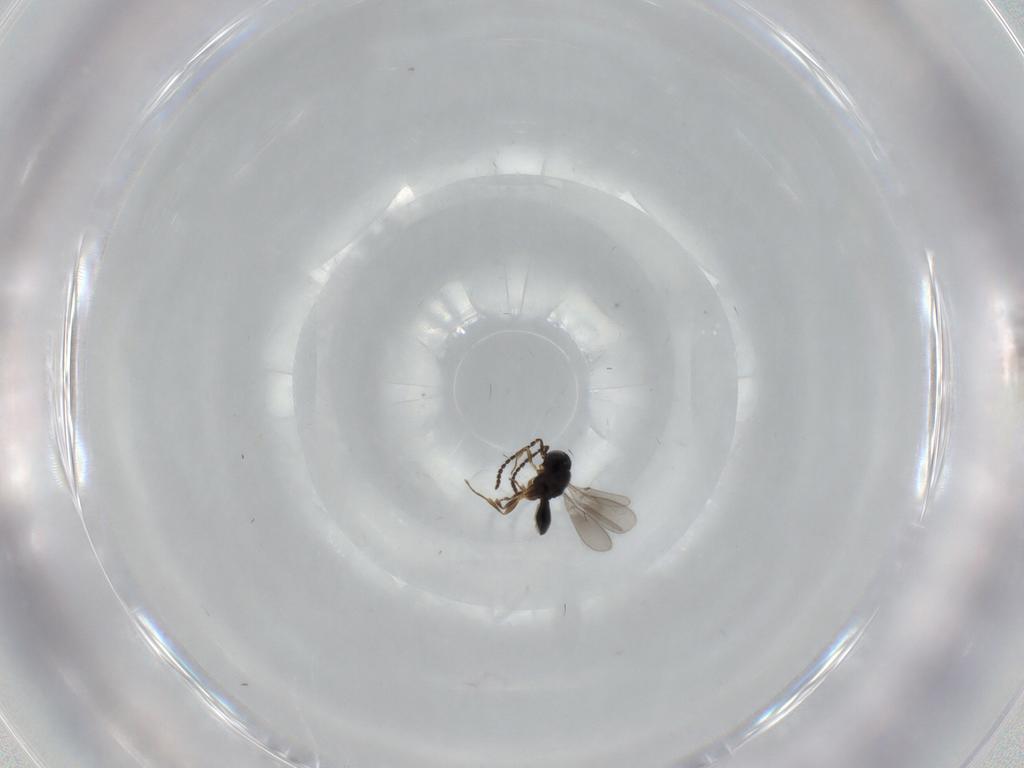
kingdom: Animalia
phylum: Arthropoda
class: Insecta
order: Hymenoptera
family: Scelionidae
